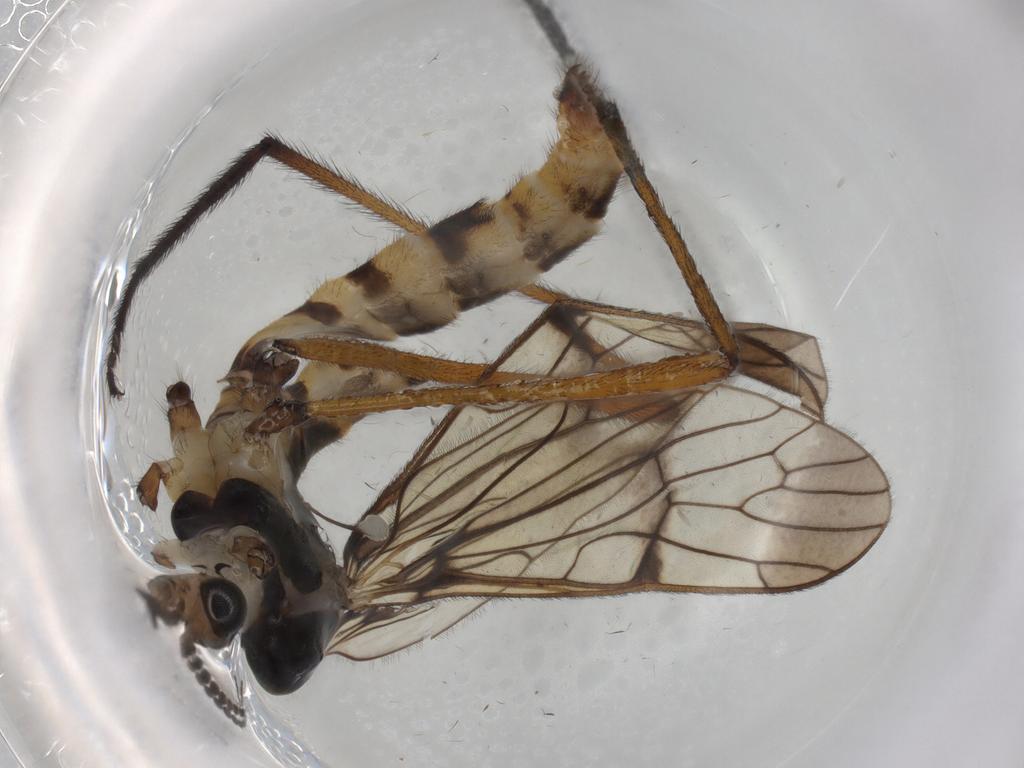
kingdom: Animalia
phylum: Arthropoda
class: Insecta
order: Diptera
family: Limoniidae
